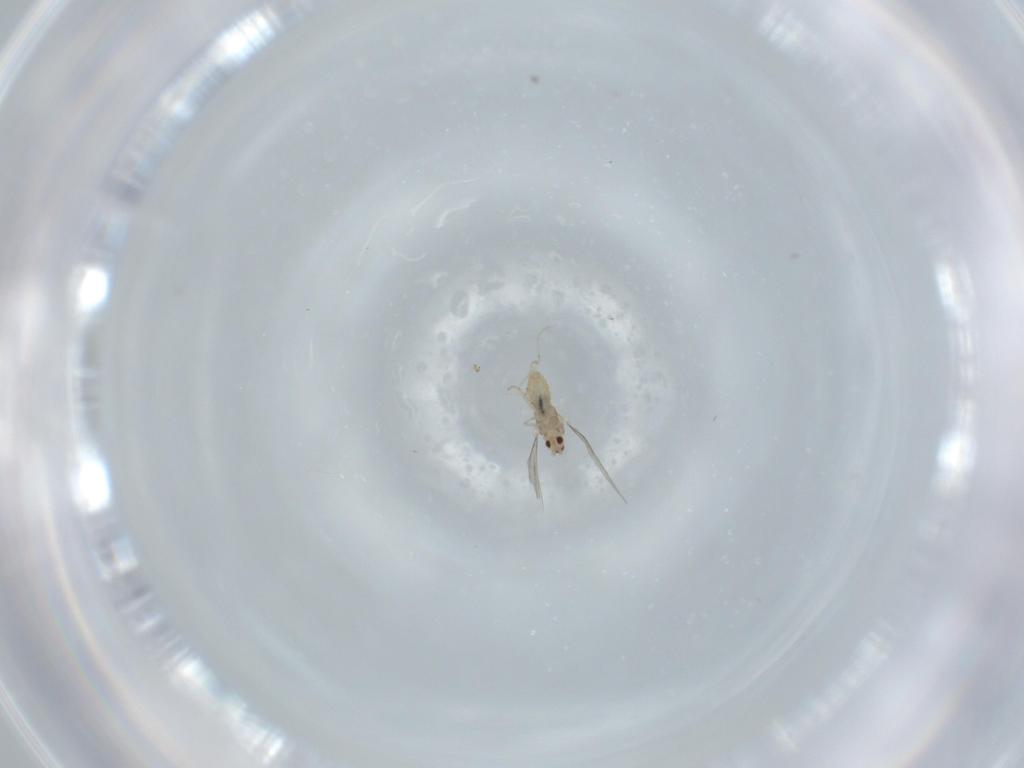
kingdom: Animalia
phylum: Arthropoda
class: Insecta
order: Diptera
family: Cecidomyiidae
